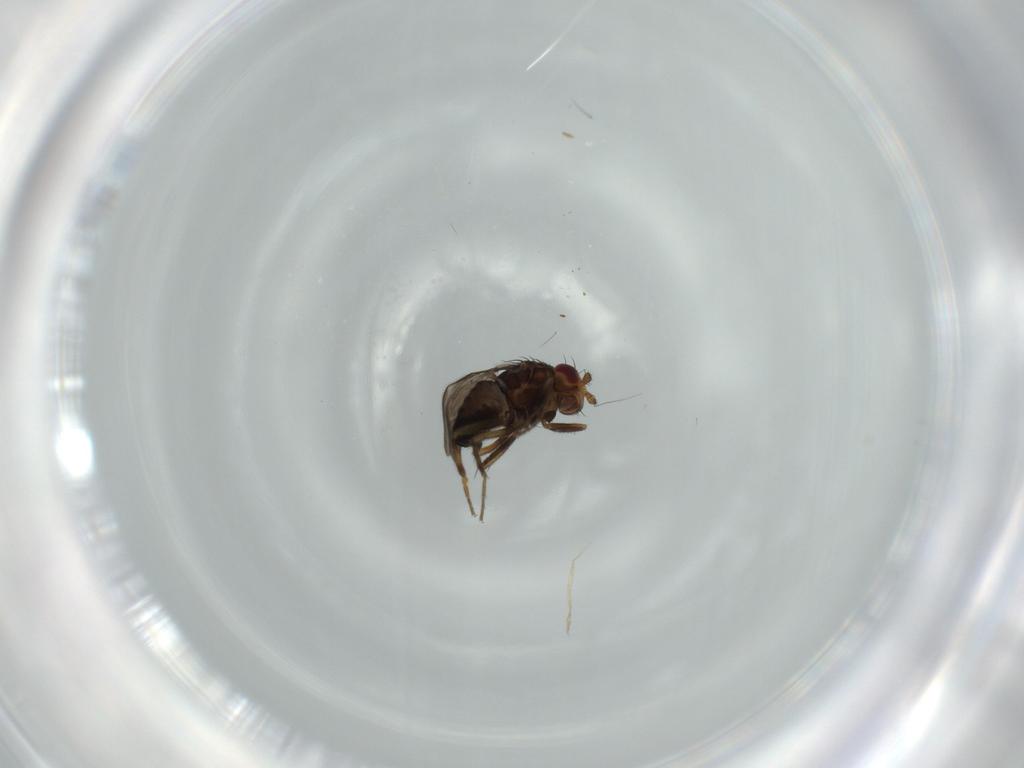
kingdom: Animalia
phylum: Arthropoda
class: Insecta
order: Diptera
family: Sphaeroceridae
